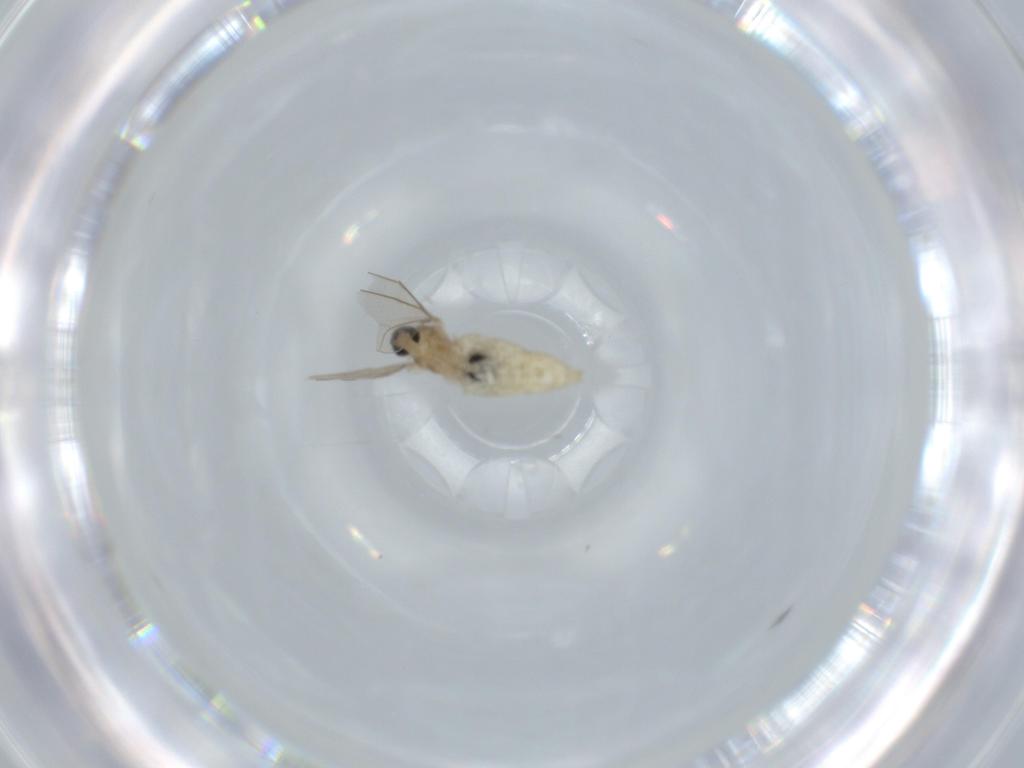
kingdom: Animalia
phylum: Arthropoda
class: Insecta
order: Diptera
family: Cecidomyiidae
